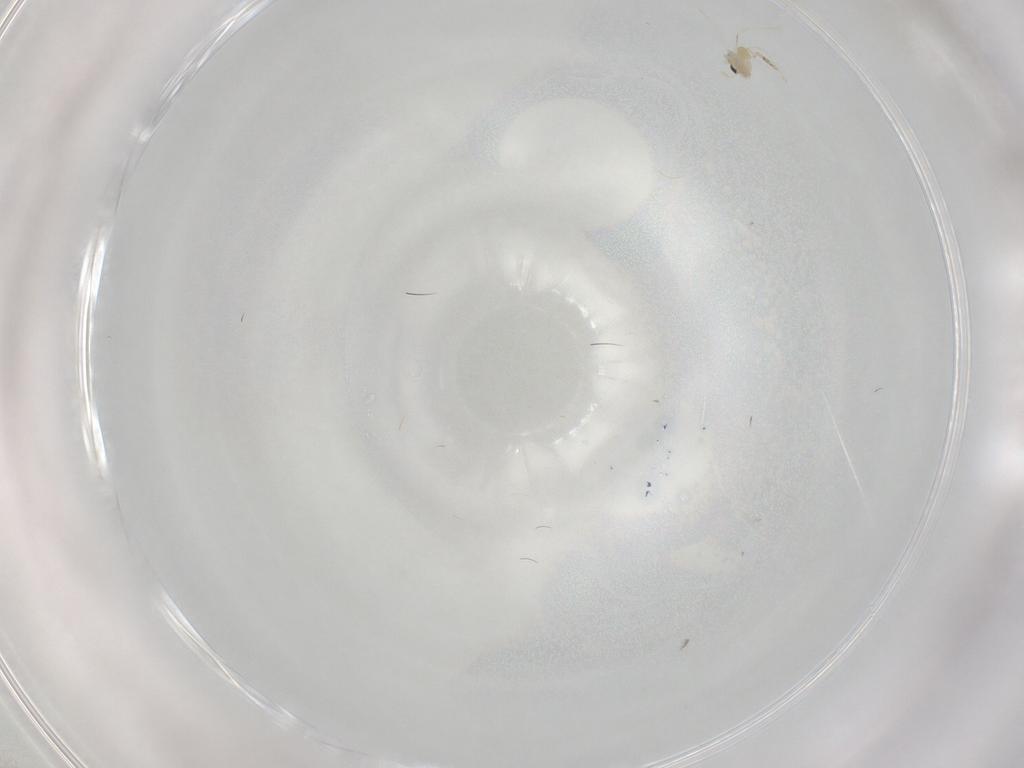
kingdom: Animalia
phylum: Arthropoda
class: Insecta
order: Diptera
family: Cecidomyiidae
